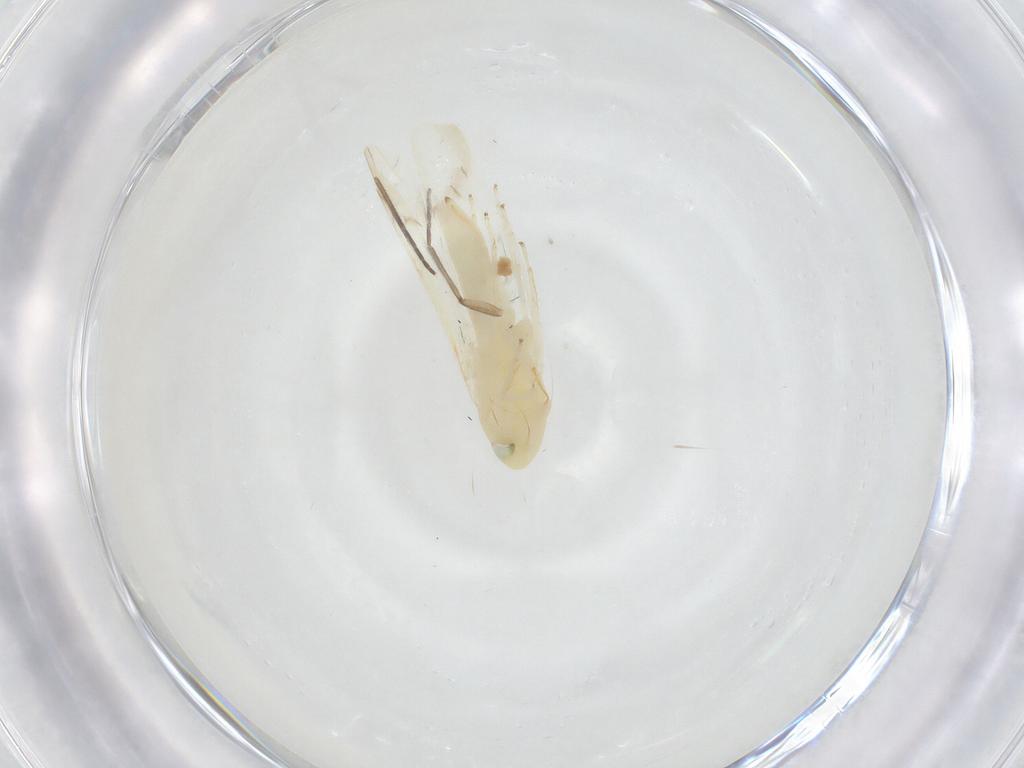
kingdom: Animalia
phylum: Arthropoda
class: Insecta
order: Hemiptera
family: Cicadellidae
